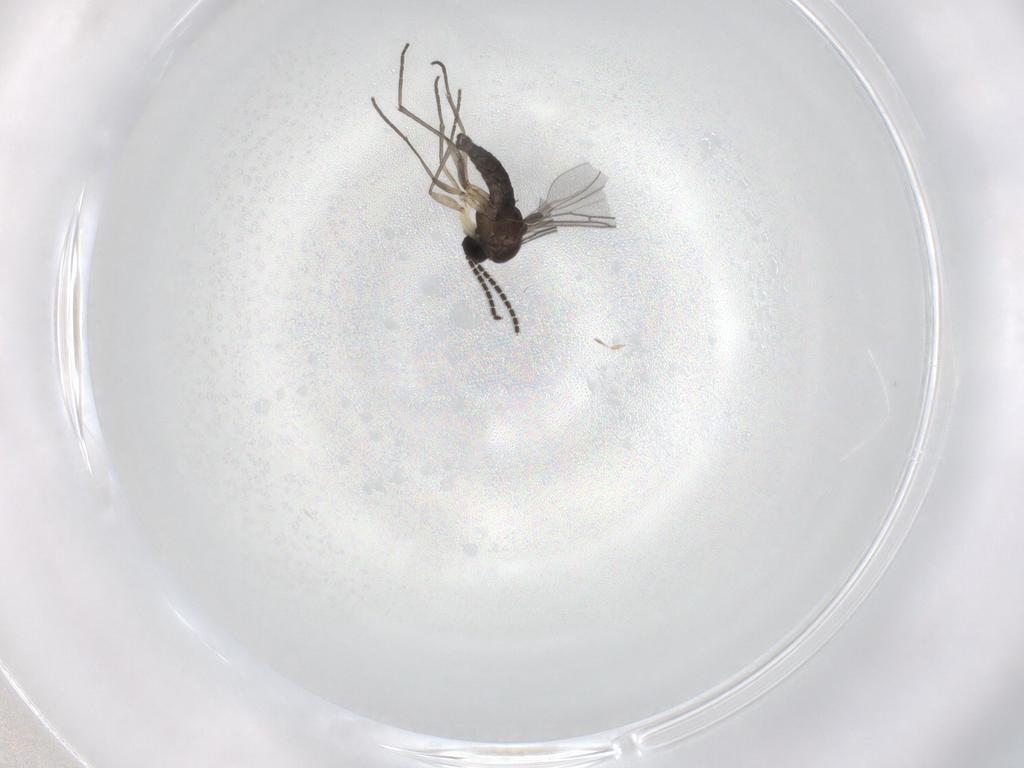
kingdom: Animalia
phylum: Arthropoda
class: Insecta
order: Diptera
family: Sciaridae
